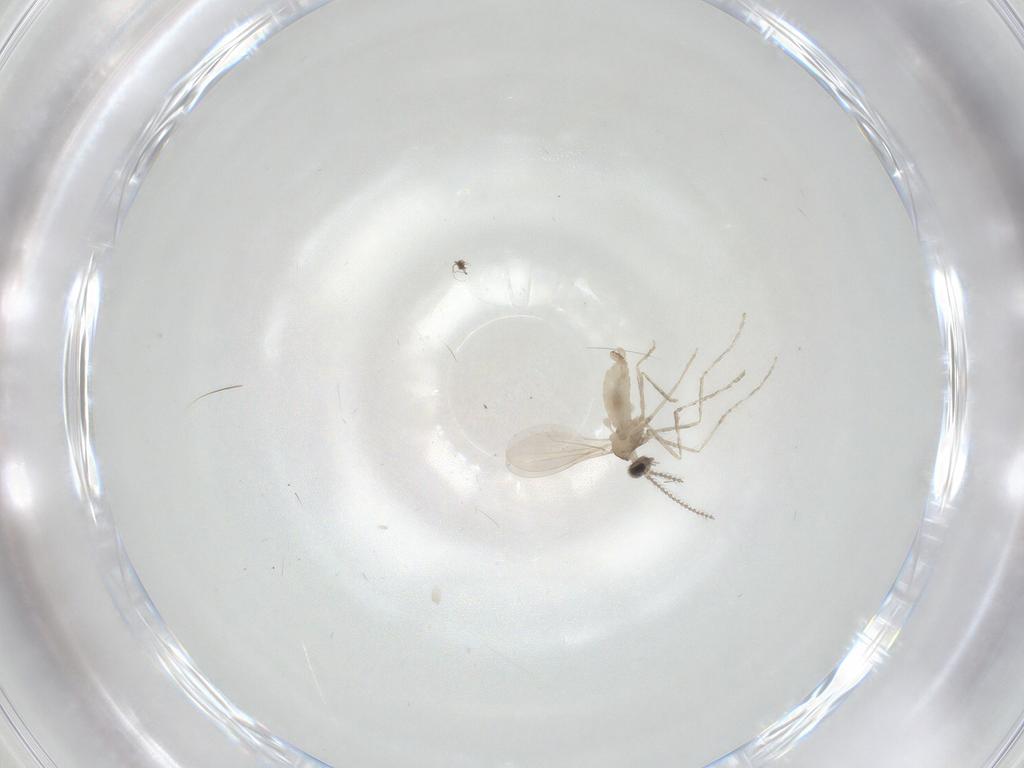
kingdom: Animalia
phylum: Arthropoda
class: Insecta
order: Diptera
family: Cecidomyiidae
